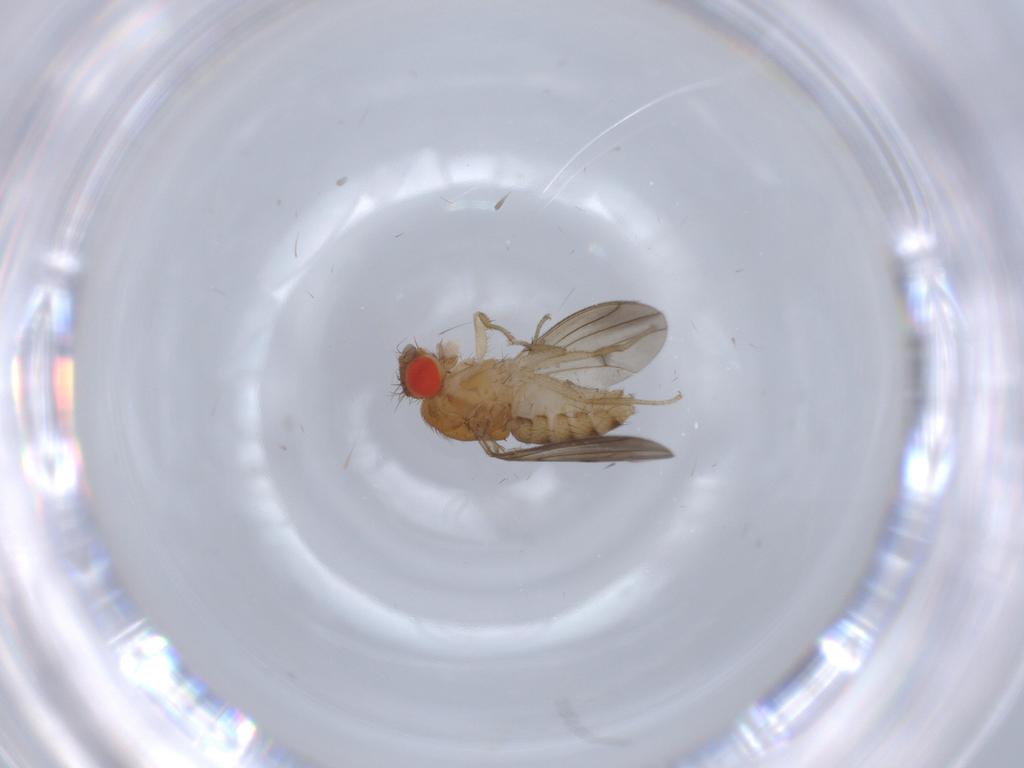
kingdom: Animalia
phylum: Arthropoda
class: Insecta
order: Diptera
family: Drosophilidae
